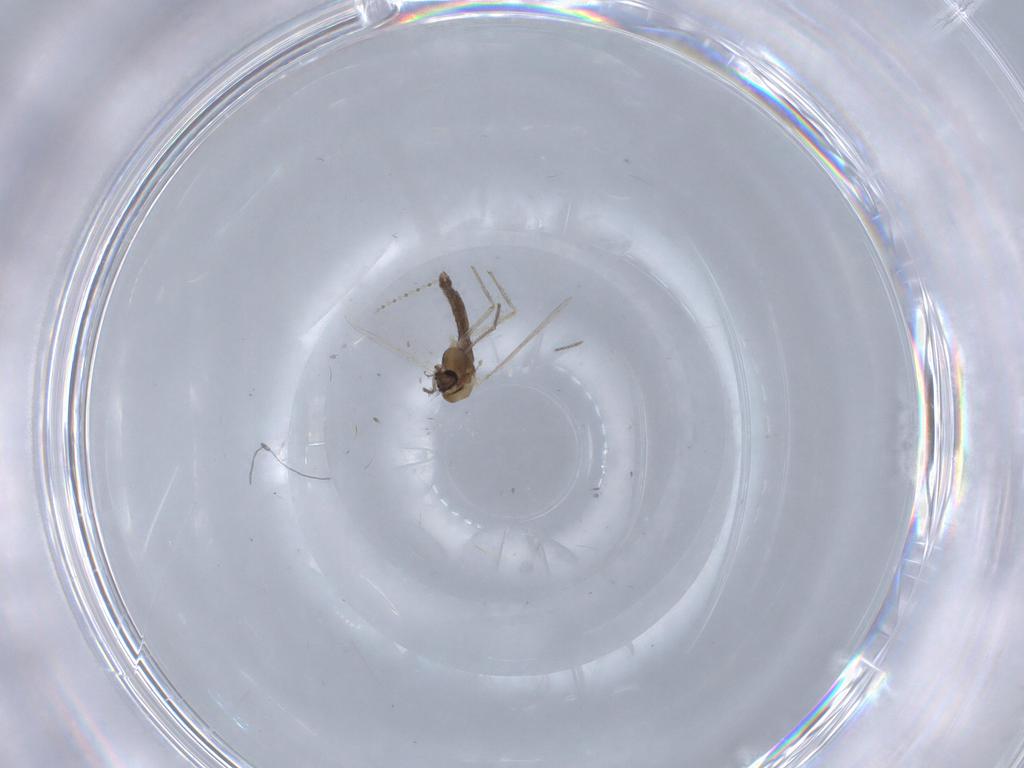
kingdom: Animalia
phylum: Arthropoda
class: Insecta
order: Diptera
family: Chironomidae
